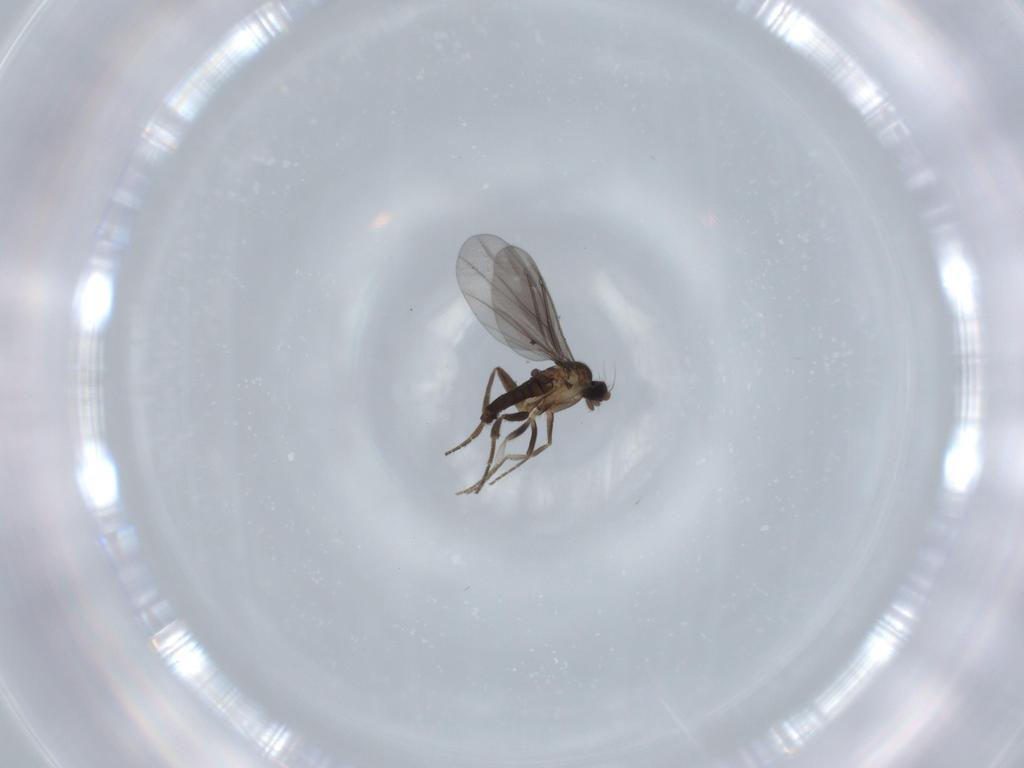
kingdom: Animalia
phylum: Arthropoda
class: Insecta
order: Diptera
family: Phoridae
